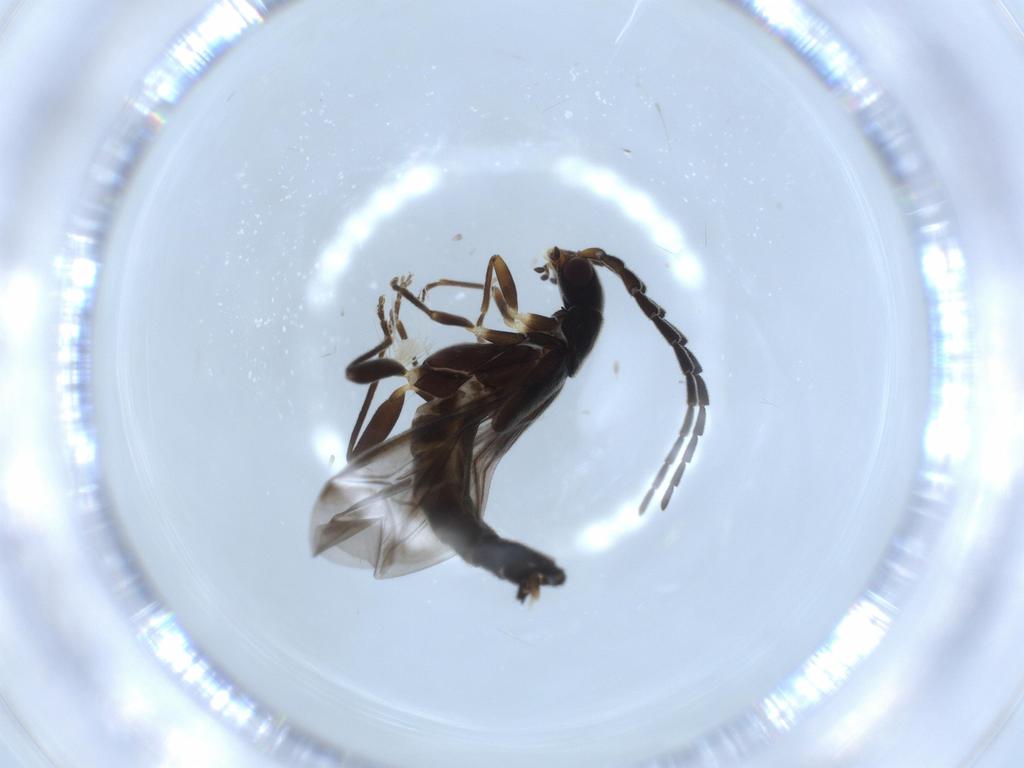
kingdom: Animalia
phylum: Arthropoda
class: Insecta
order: Coleoptera
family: Cantharidae
